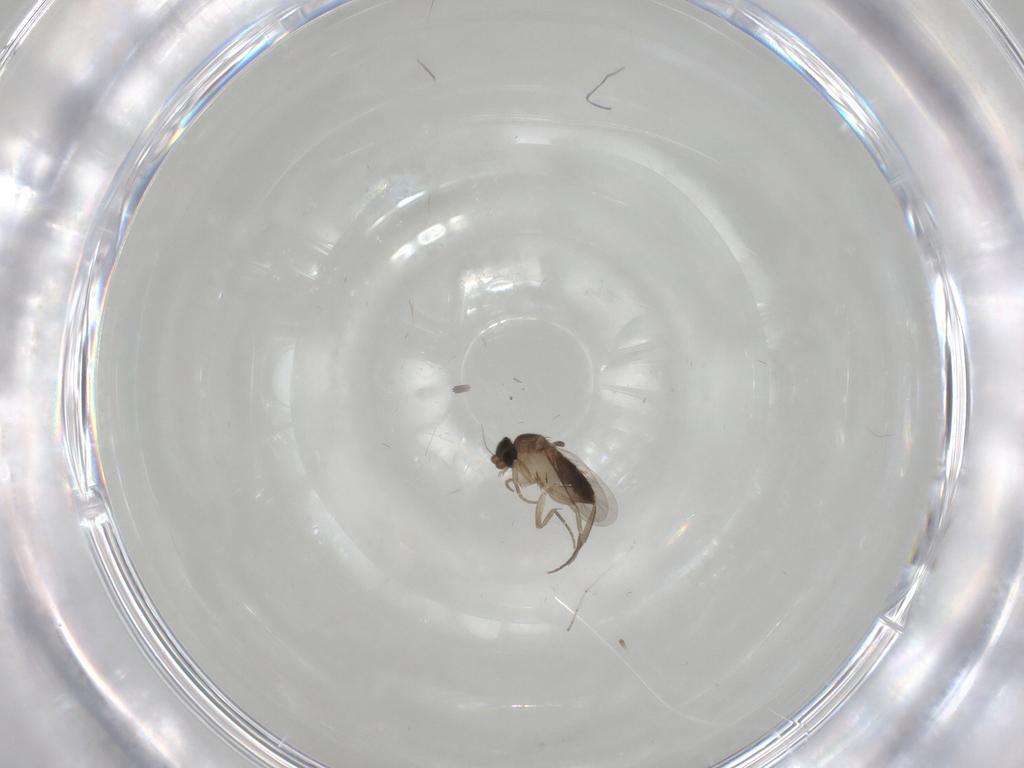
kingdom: Animalia
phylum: Arthropoda
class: Insecta
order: Diptera
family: Phoridae
